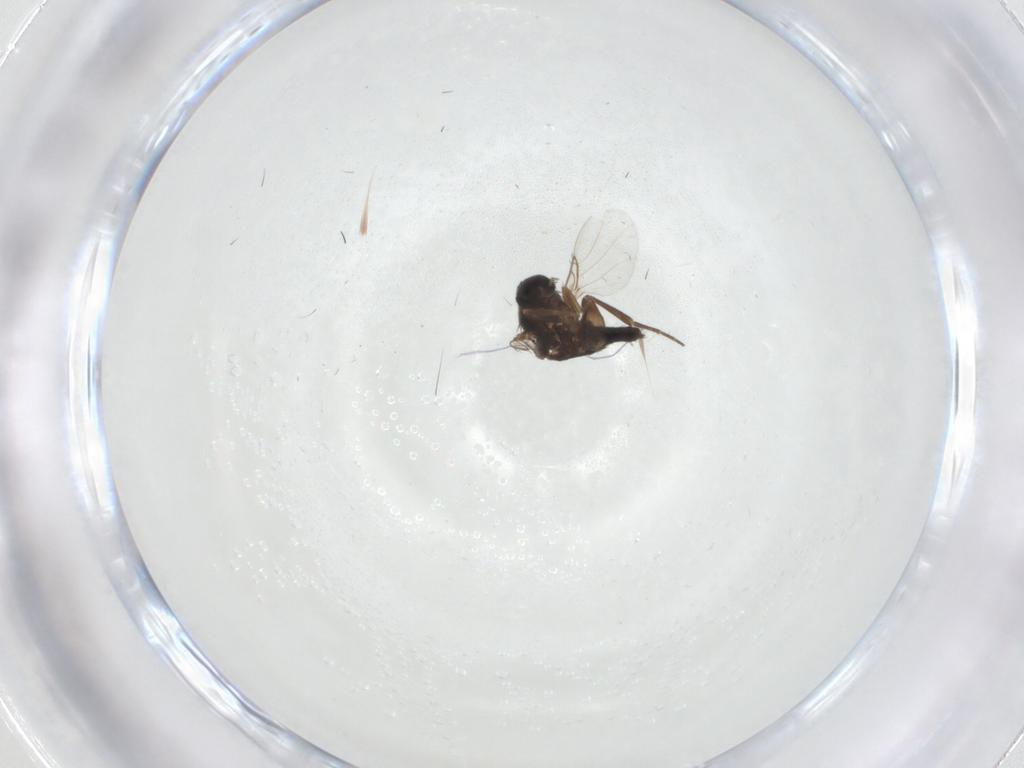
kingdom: Animalia
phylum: Arthropoda
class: Insecta
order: Diptera
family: Phoridae
